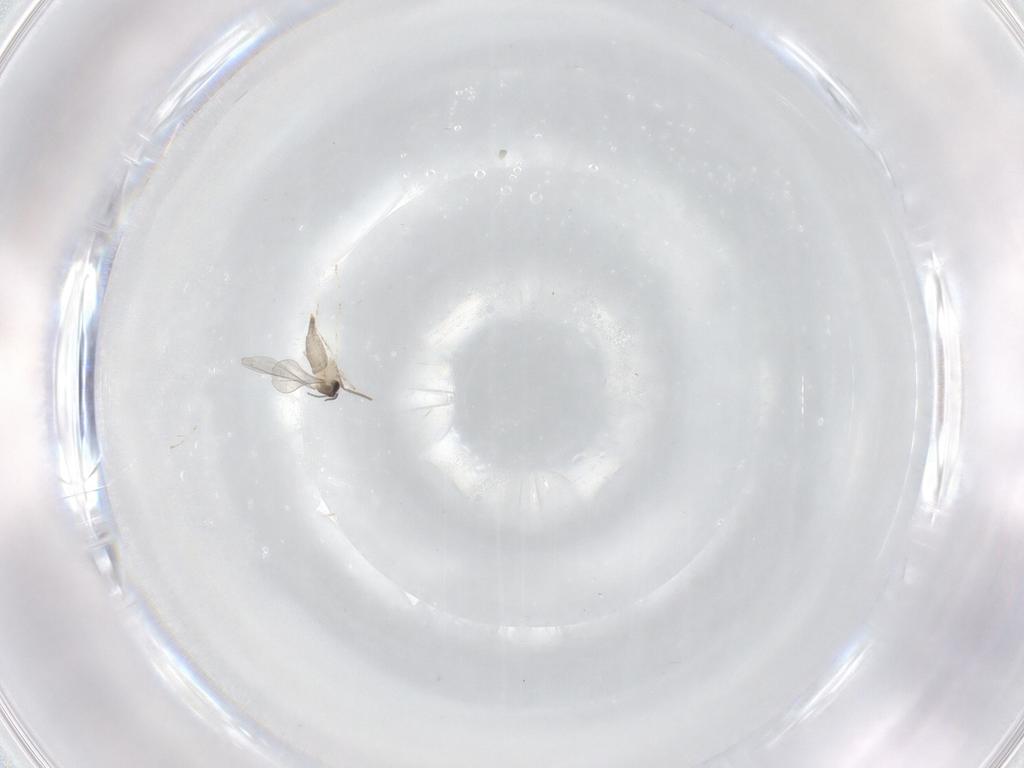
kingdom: Animalia
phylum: Arthropoda
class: Insecta
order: Diptera
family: Cecidomyiidae
